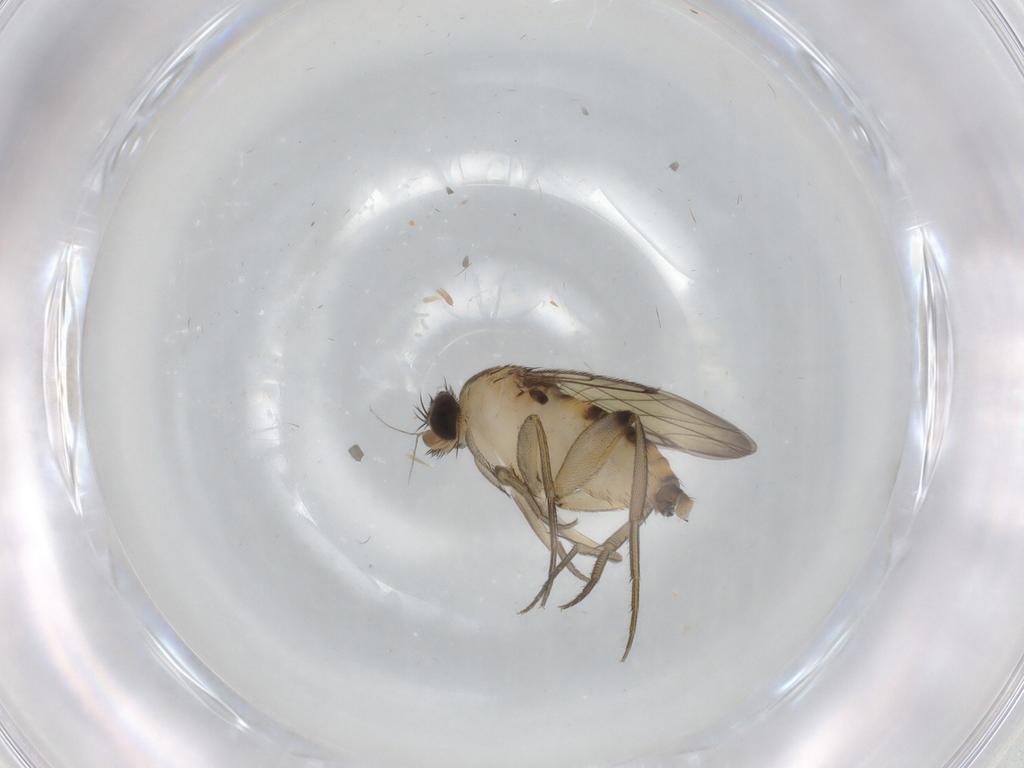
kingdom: Animalia
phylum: Arthropoda
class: Insecta
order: Diptera
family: Phoridae
